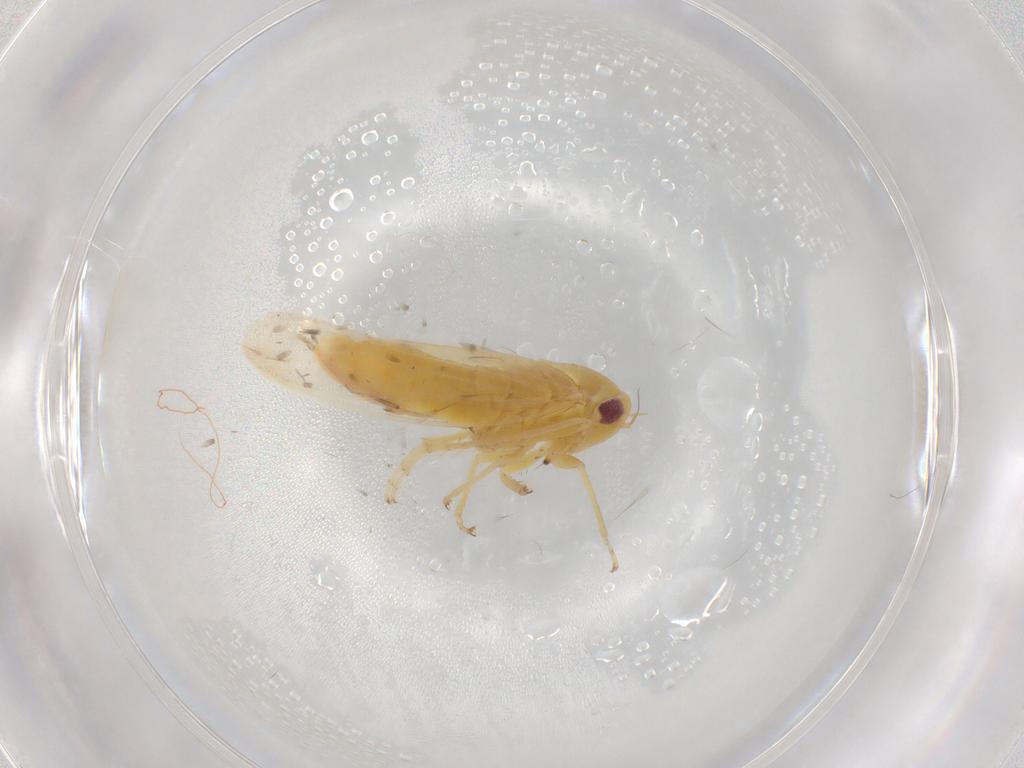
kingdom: Animalia
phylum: Arthropoda
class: Insecta
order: Hemiptera
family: Cicadellidae
